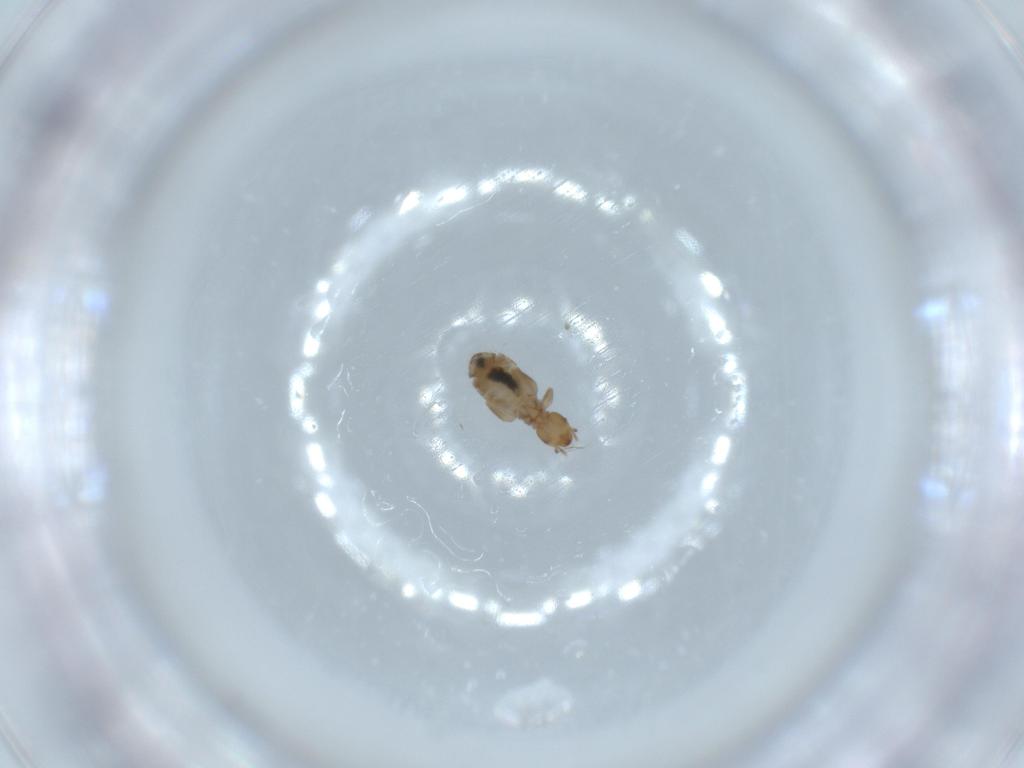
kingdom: Animalia
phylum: Arthropoda
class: Insecta
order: Psocodea
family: Liposcelididae
